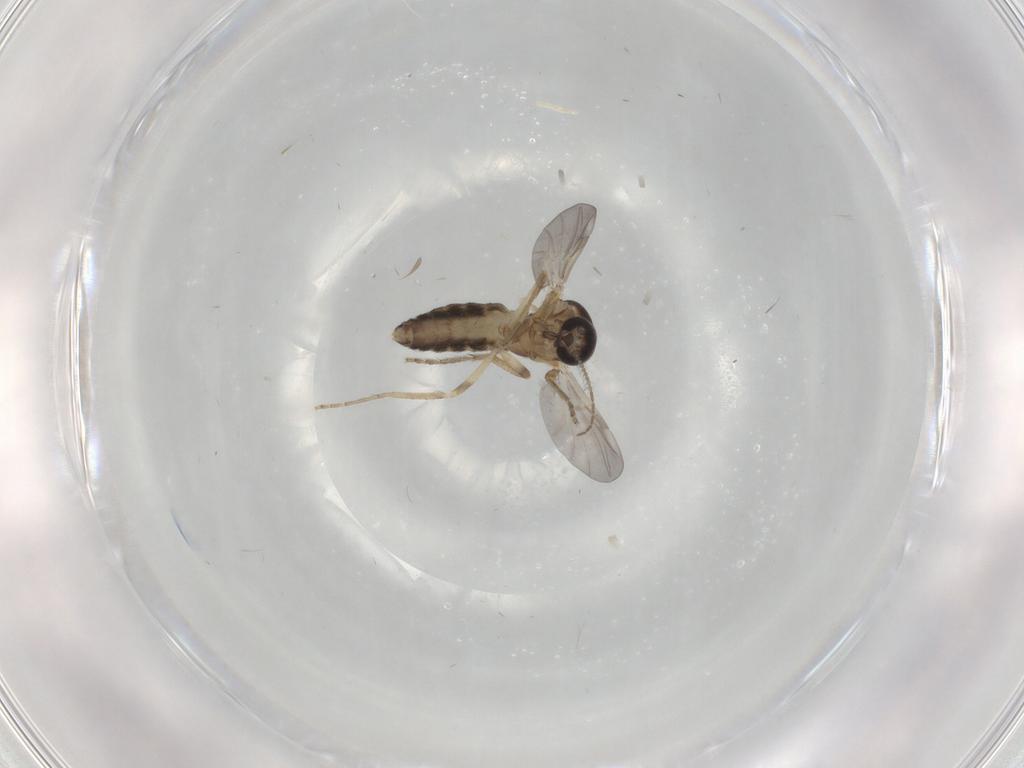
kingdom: Animalia
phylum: Arthropoda
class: Insecta
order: Diptera
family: Ceratopogonidae
